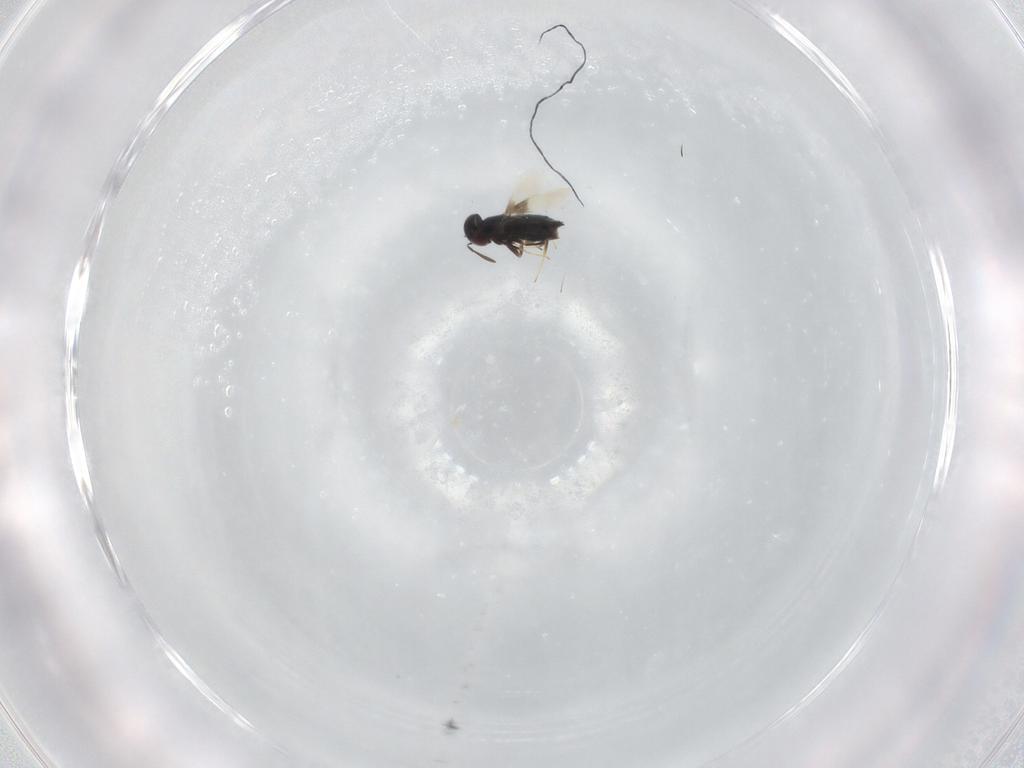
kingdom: Animalia
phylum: Arthropoda
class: Insecta
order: Hymenoptera
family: Signiphoridae
